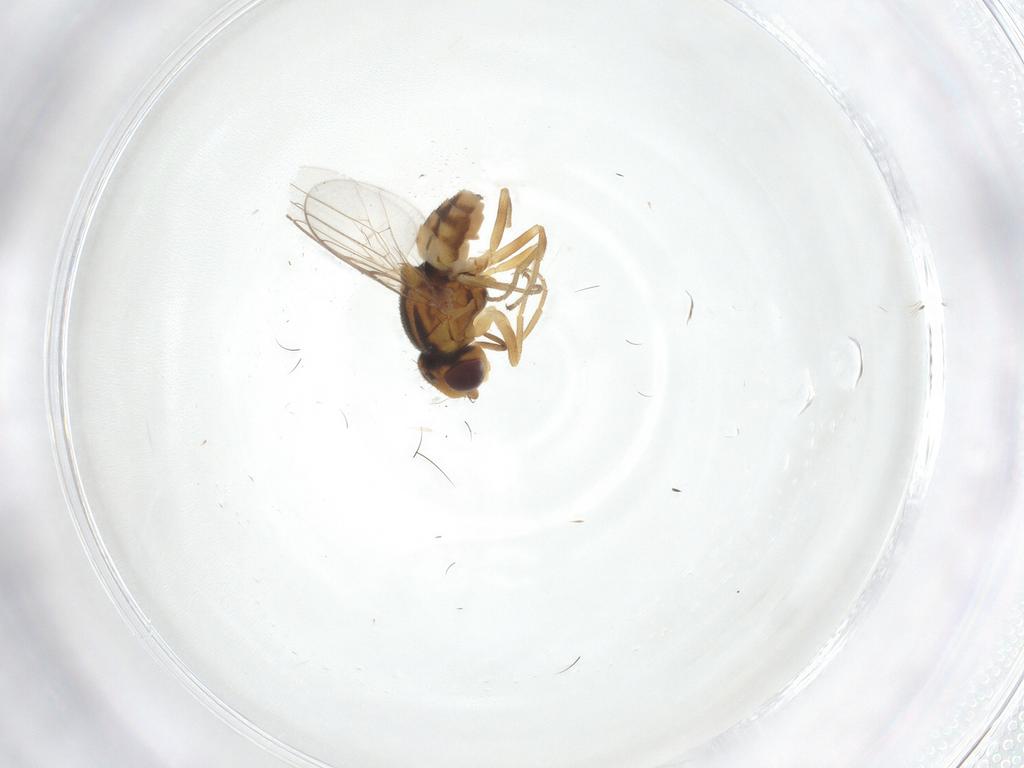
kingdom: Animalia
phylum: Arthropoda
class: Insecta
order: Diptera
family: Chloropidae
